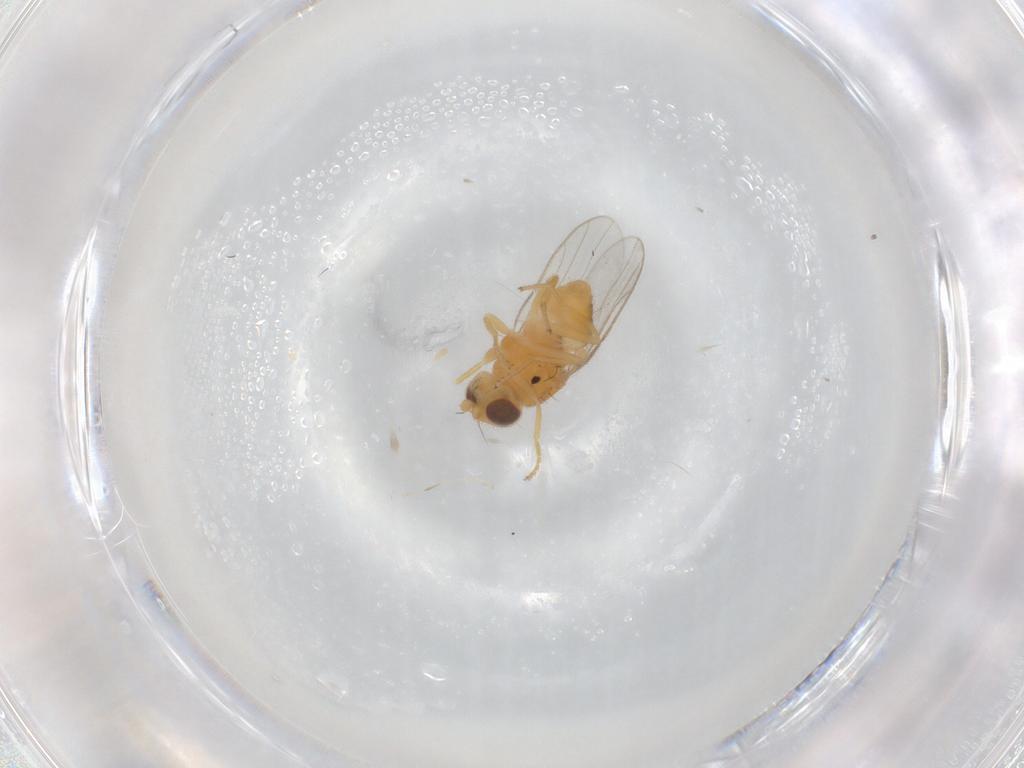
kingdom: Animalia
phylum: Arthropoda
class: Insecta
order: Diptera
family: Chloropidae
